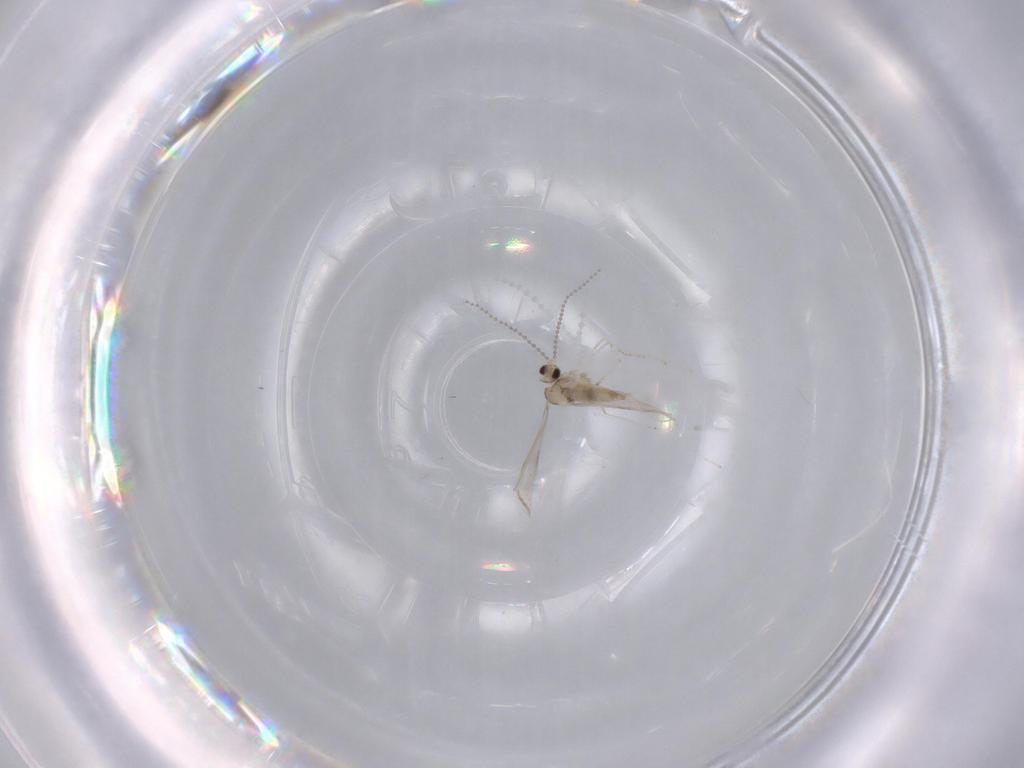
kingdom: Animalia
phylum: Arthropoda
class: Insecta
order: Diptera
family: Cecidomyiidae
